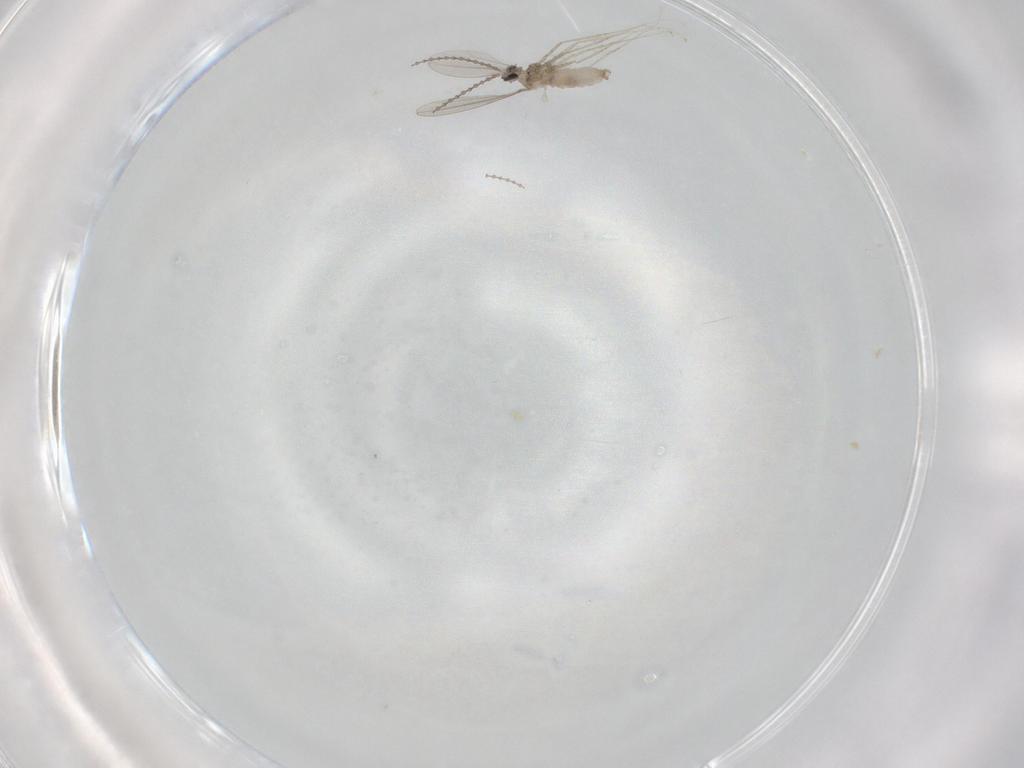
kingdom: Animalia
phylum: Arthropoda
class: Insecta
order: Diptera
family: Cecidomyiidae
